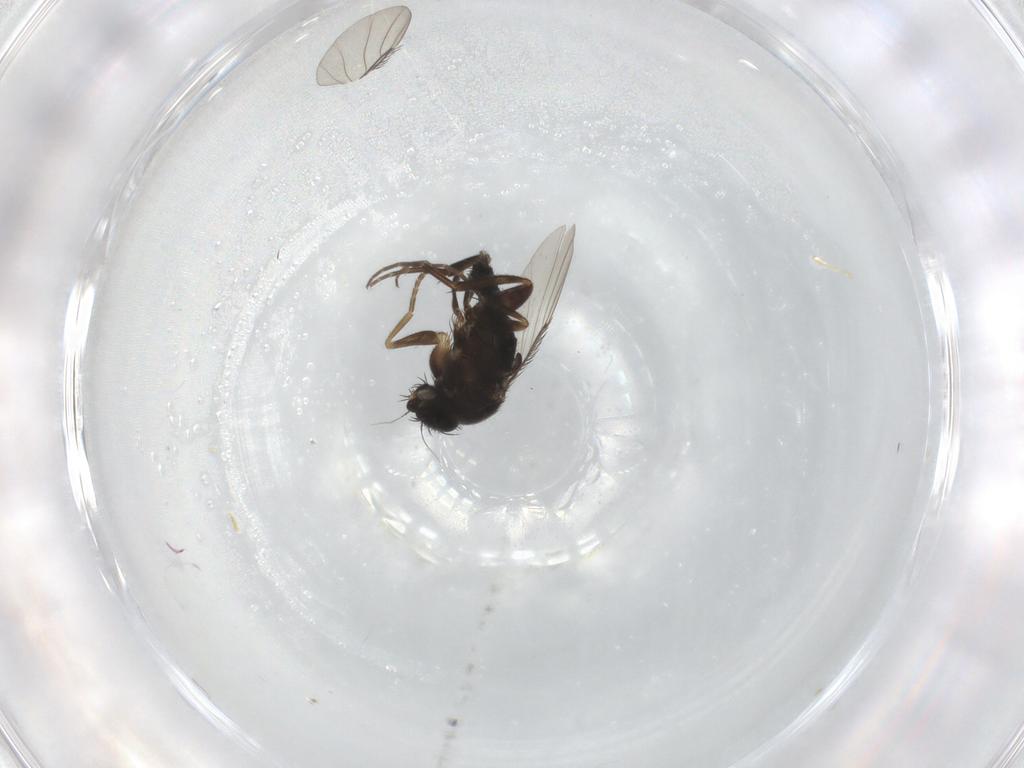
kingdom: Animalia
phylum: Arthropoda
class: Insecta
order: Diptera
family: Phoridae
